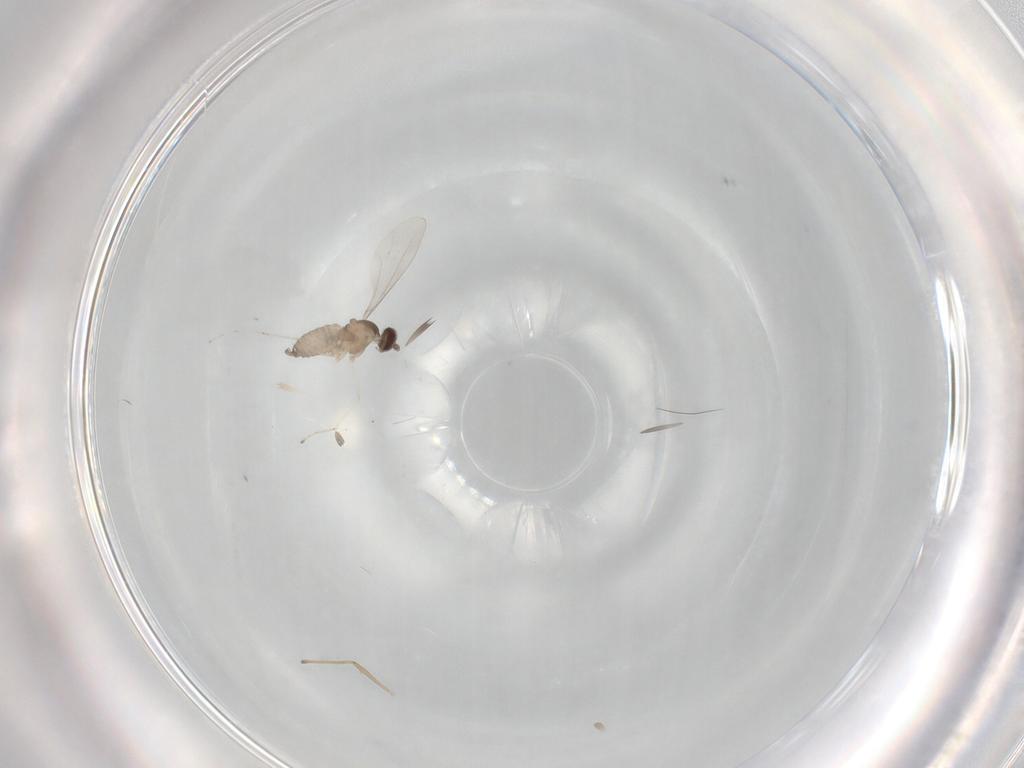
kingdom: Animalia
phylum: Arthropoda
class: Insecta
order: Diptera
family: Cecidomyiidae
